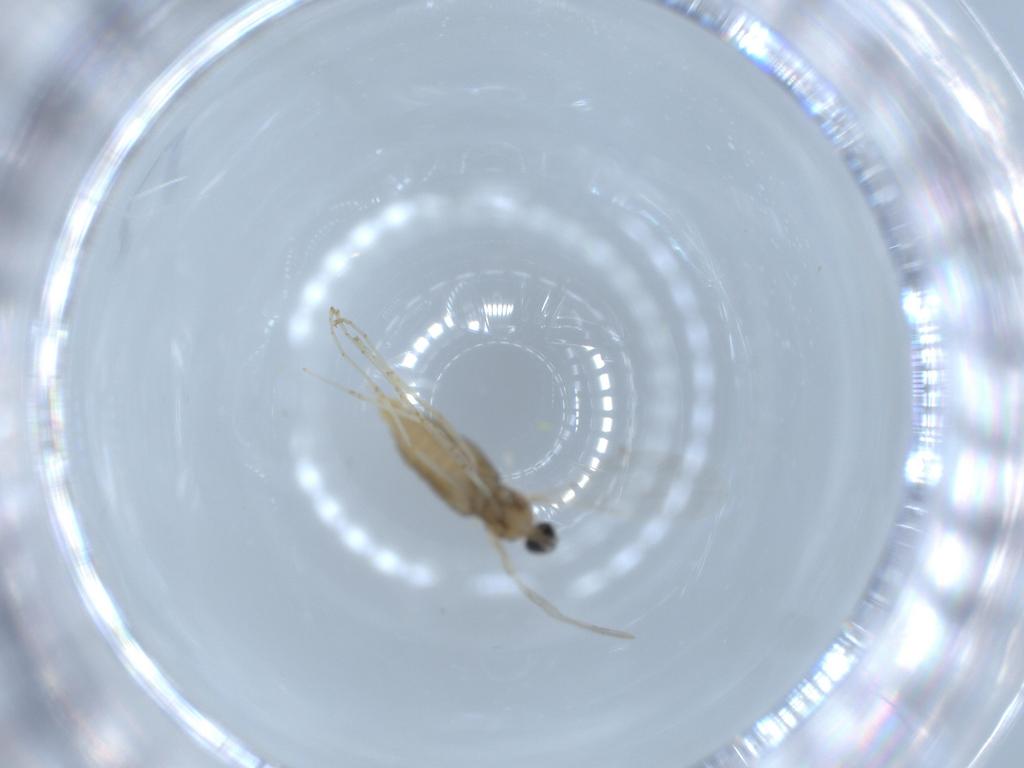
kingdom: Animalia
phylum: Arthropoda
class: Insecta
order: Diptera
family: Cecidomyiidae
